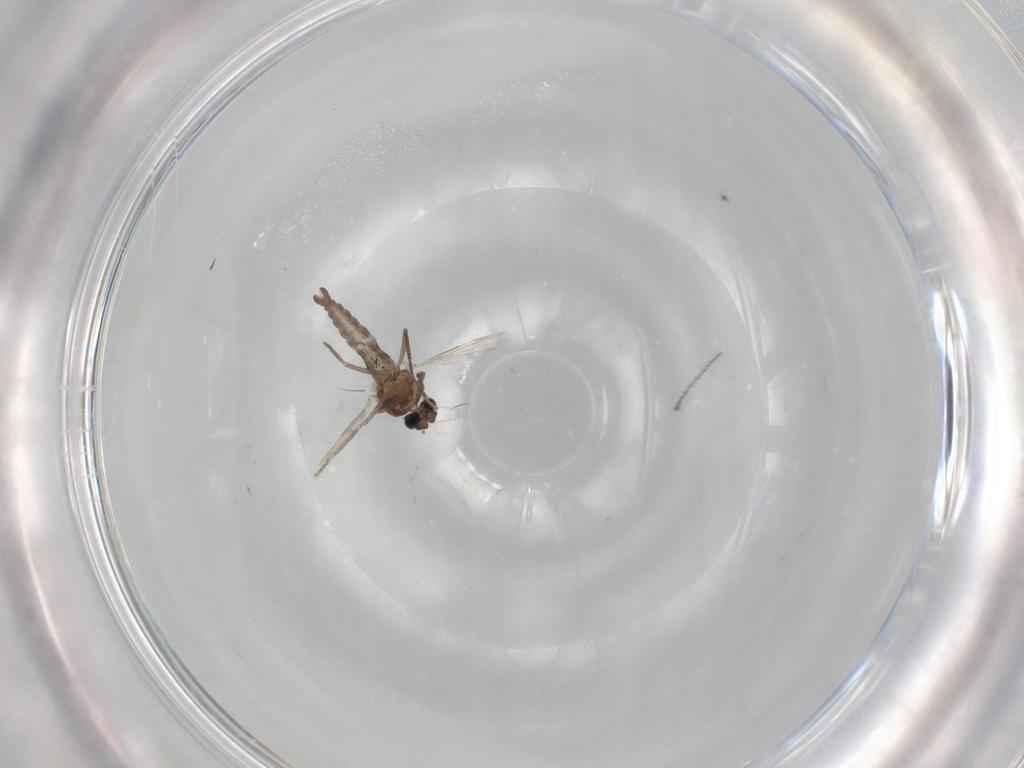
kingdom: Animalia
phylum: Arthropoda
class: Insecta
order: Diptera
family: Ceratopogonidae
